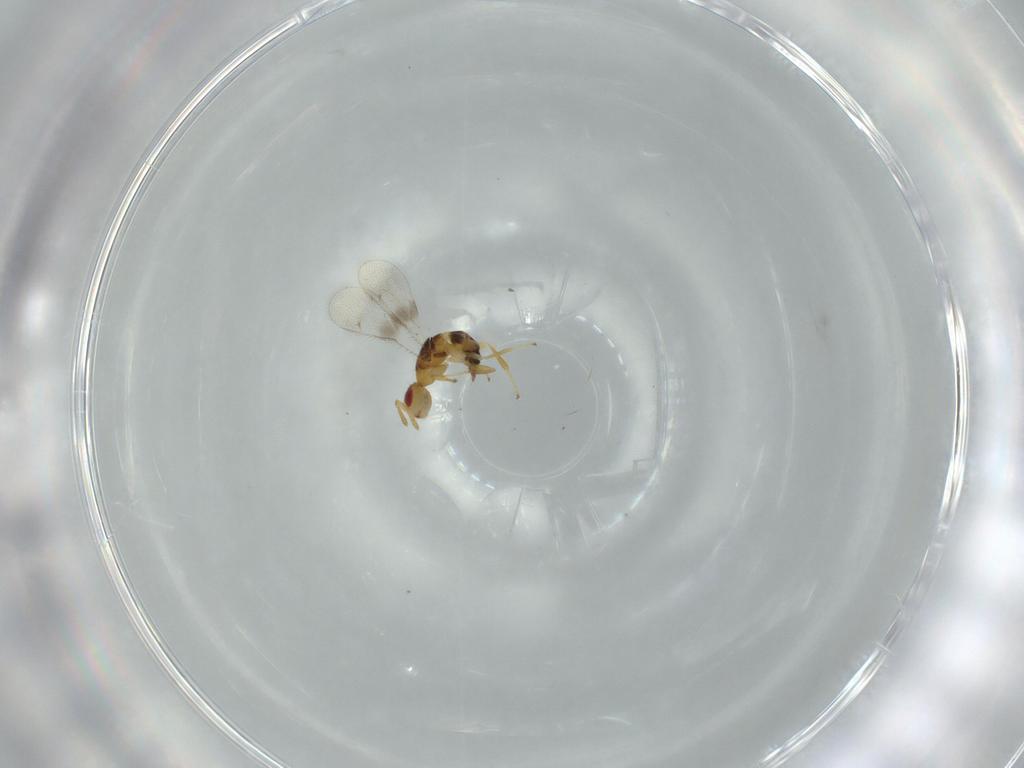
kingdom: Animalia
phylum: Arthropoda
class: Insecta
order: Hymenoptera
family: Torymidae
